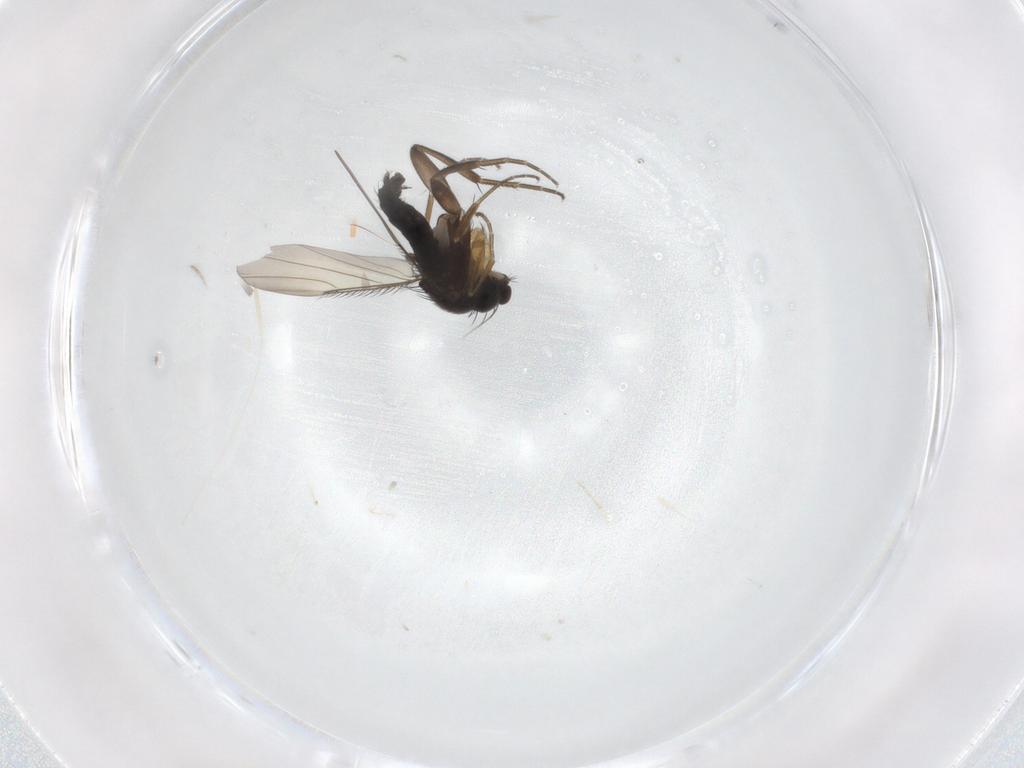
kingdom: Animalia
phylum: Arthropoda
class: Insecta
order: Diptera
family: Phoridae
